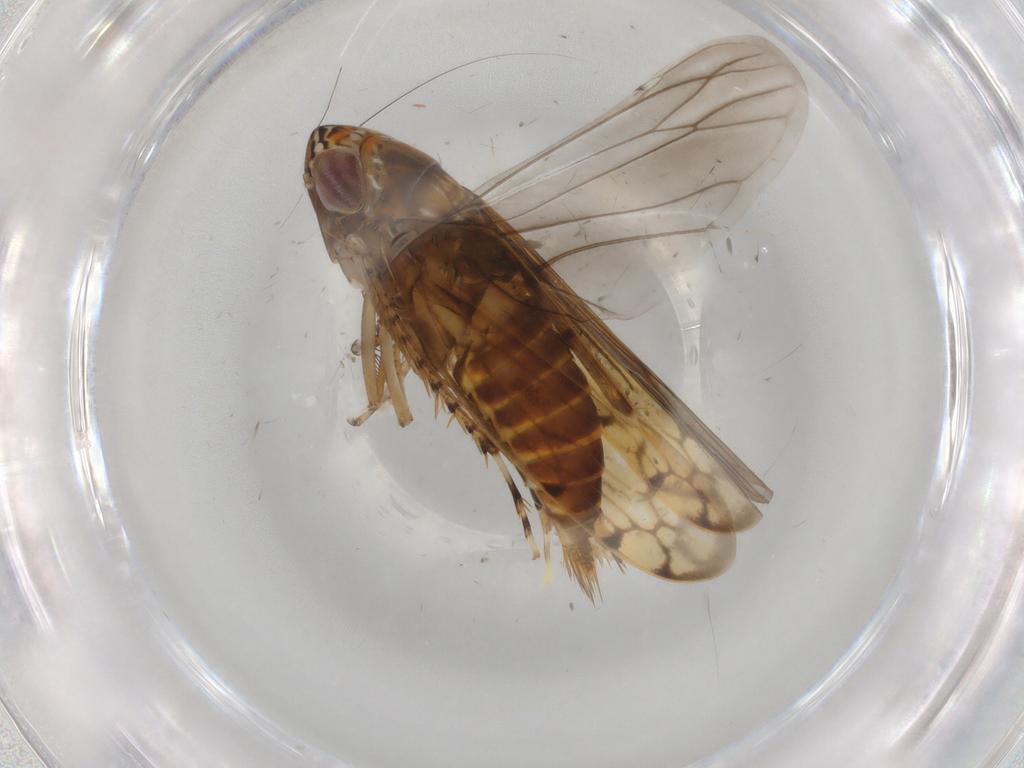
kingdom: Animalia
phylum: Arthropoda
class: Insecta
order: Hemiptera
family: Cicadellidae
